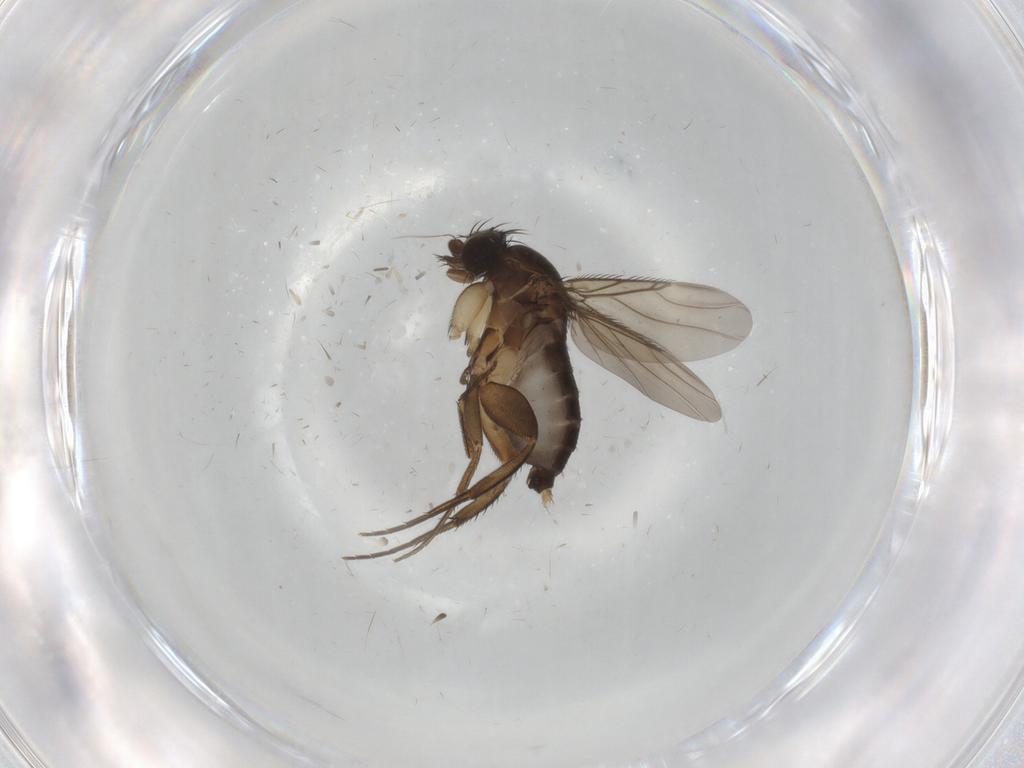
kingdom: Animalia
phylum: Arthropoda
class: Insecta
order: Diptera
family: Phoridae
